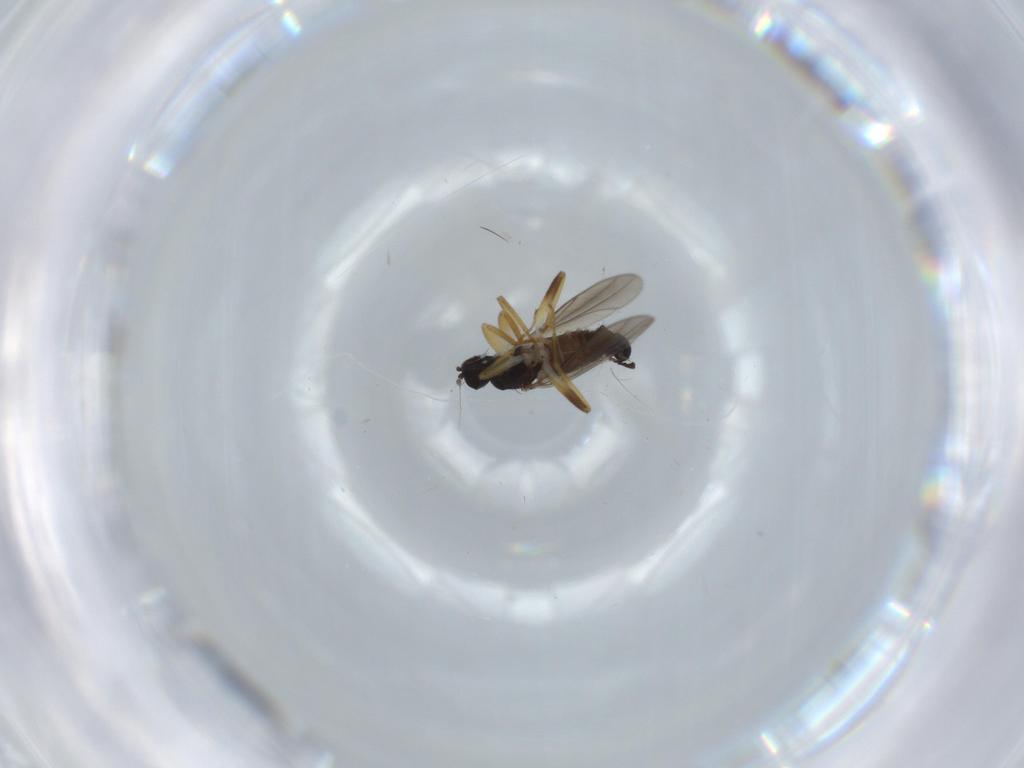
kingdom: Animalia
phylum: Arthropoda
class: Insecta
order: Diptera
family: Hybotidae
